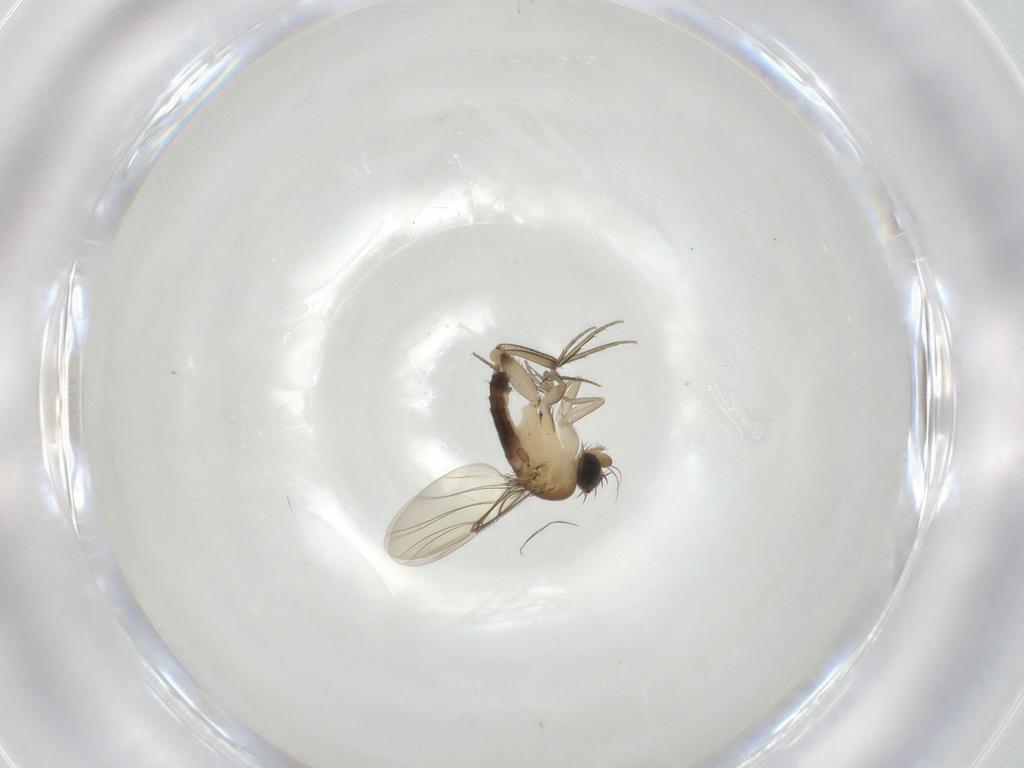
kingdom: Animalia
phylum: Arthropoda
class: Insecta
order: Diptera
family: Phoridae
